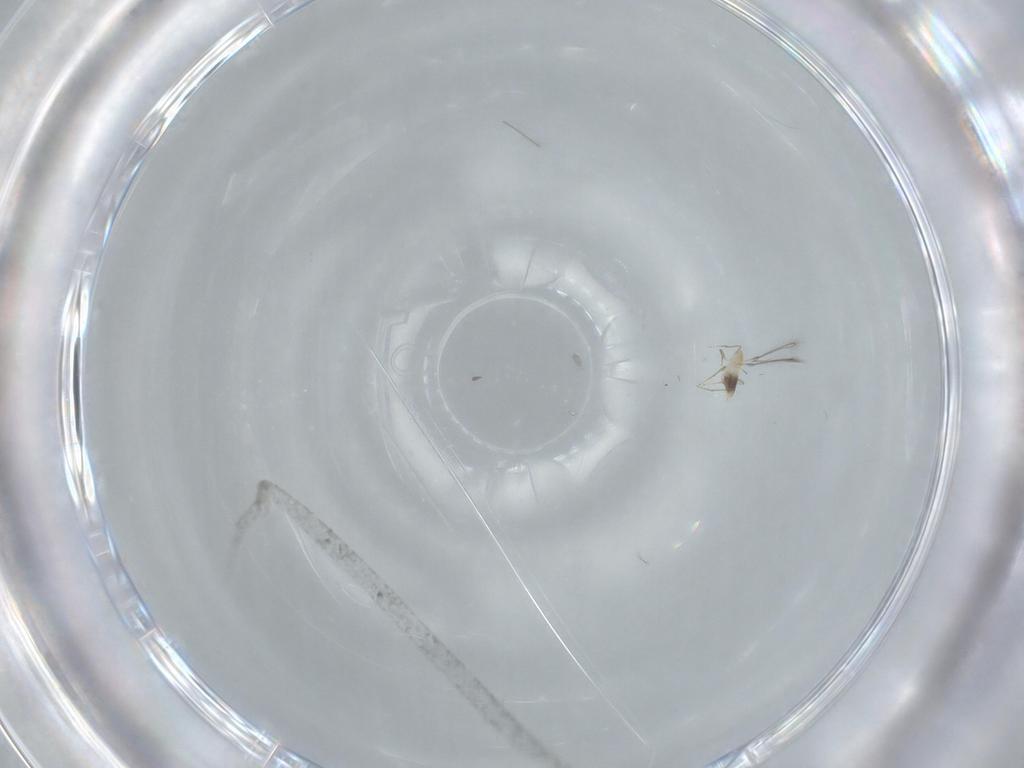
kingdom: Animalia
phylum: Arthropoda
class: Insecta
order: Hymenoptera
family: Mymaridae
